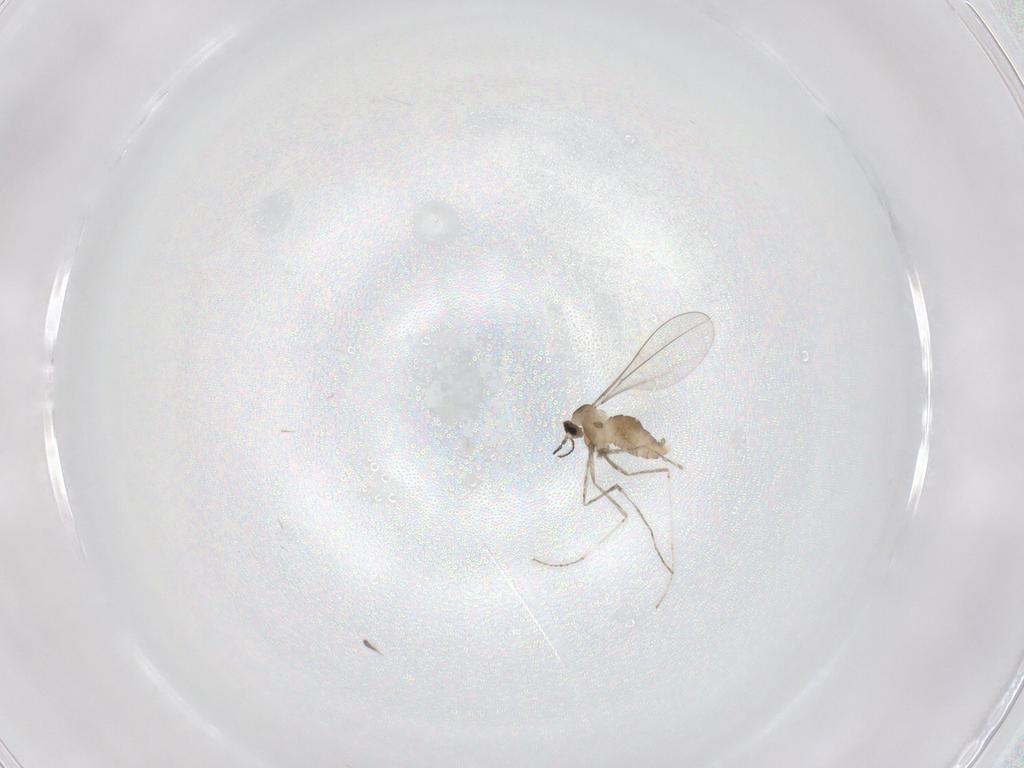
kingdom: Animalia
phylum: Arthropoda
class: Insecta
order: Diptera
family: Cecidomyiidae
